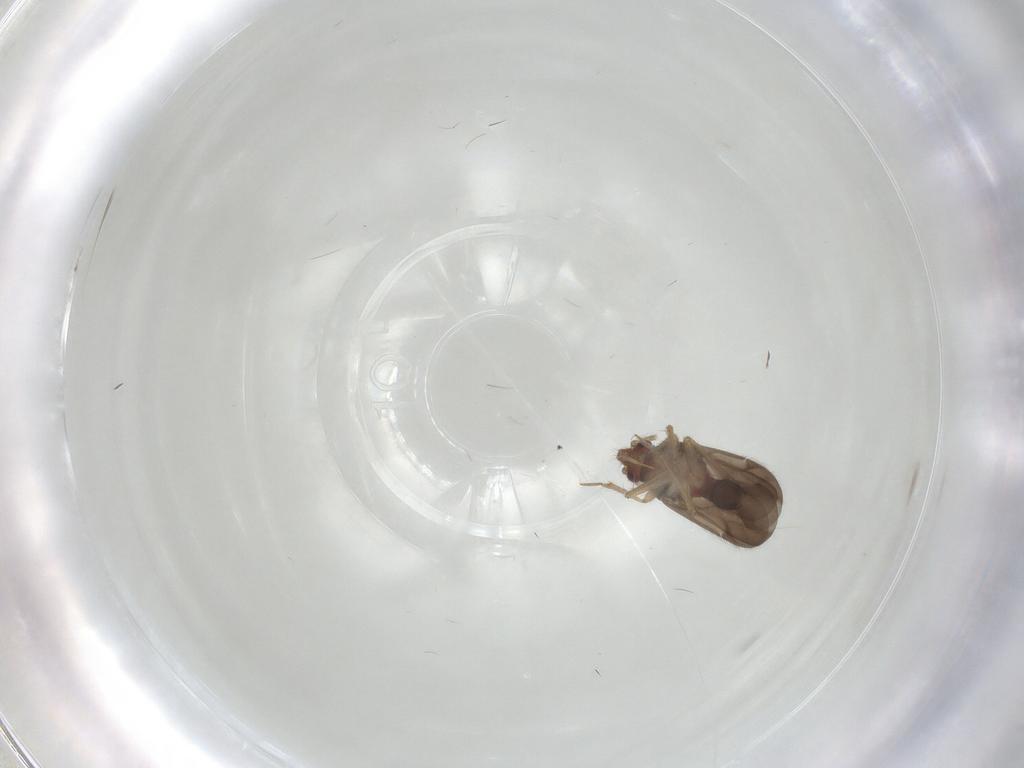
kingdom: Animalia
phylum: Arthropoda
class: Insecta
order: Hemiptera
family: Ceratocombidae
